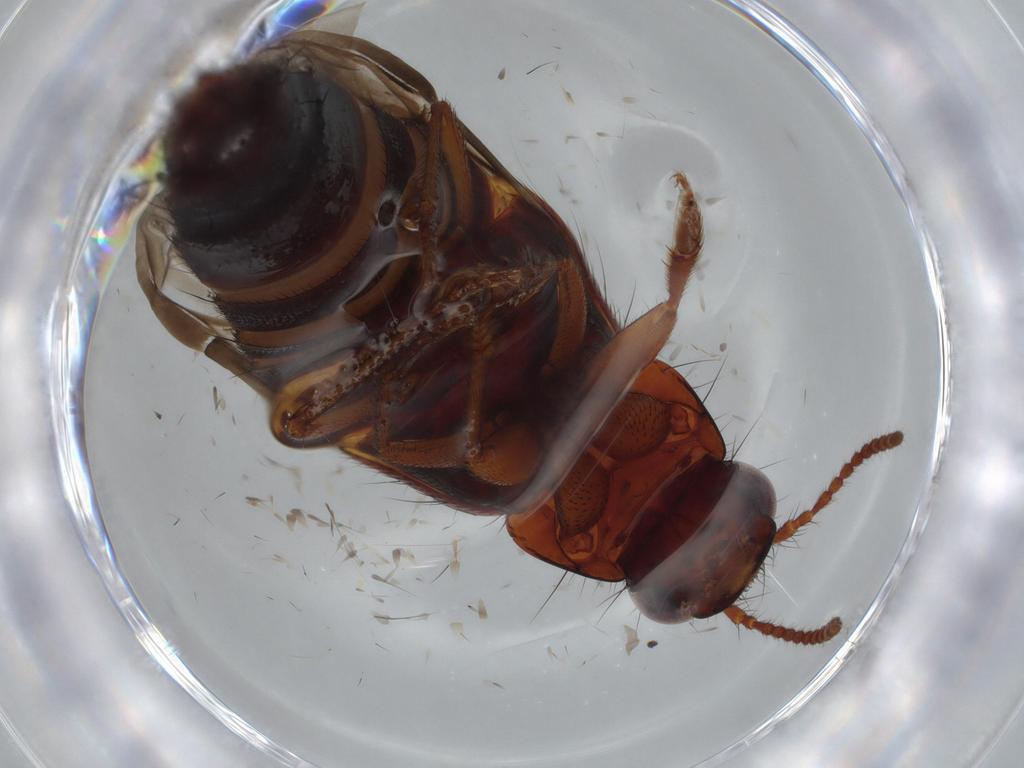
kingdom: Animalia
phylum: Arthropoda
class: Insecta
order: Coleoptera
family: Staphylinidae
